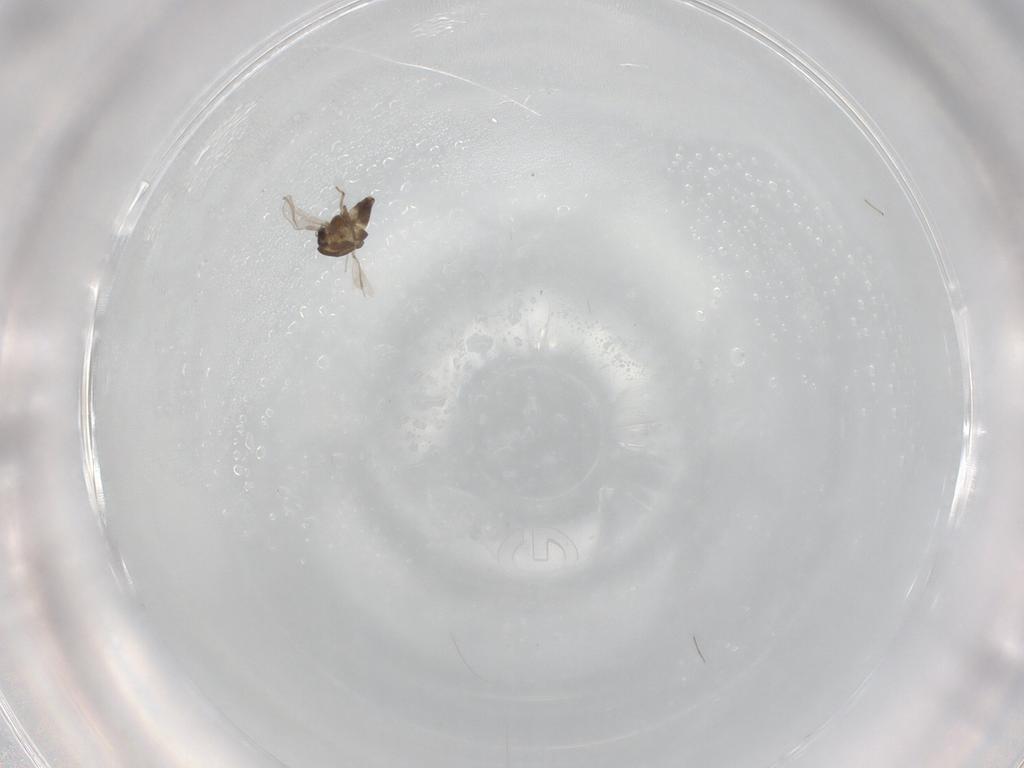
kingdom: Animalia
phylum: Arthropoda
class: Insecta
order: Diptera
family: Chironomidae
